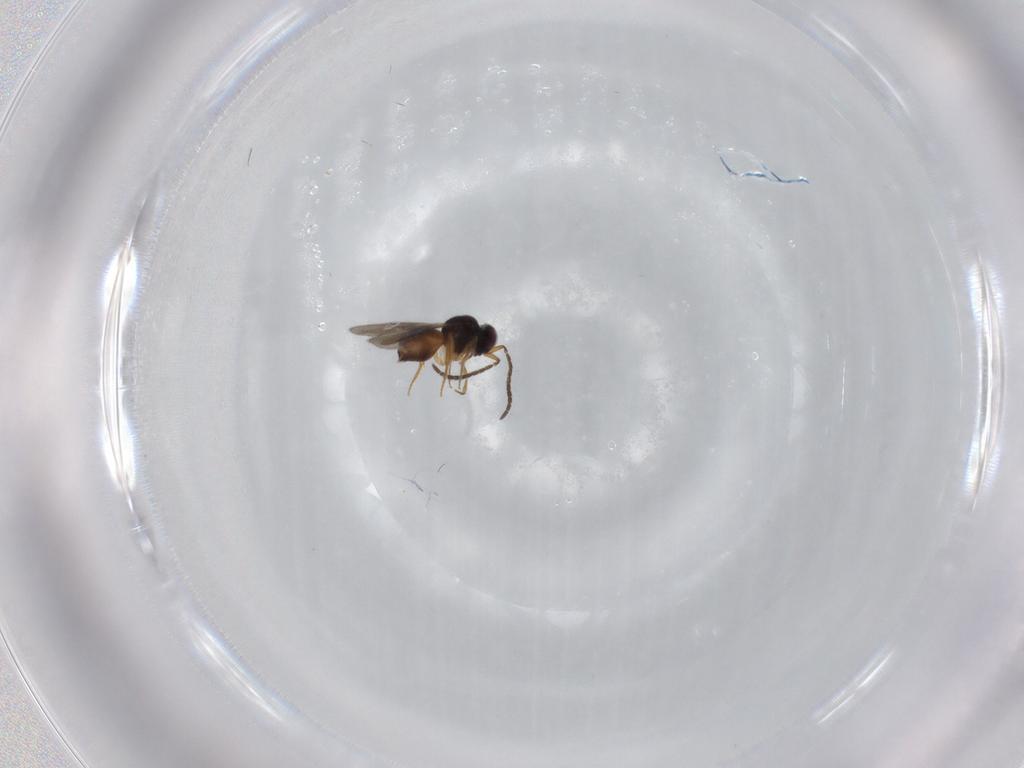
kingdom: Animalia
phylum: Arthropoda
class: Insecta
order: Hymenoptera
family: Ceraphronidae
